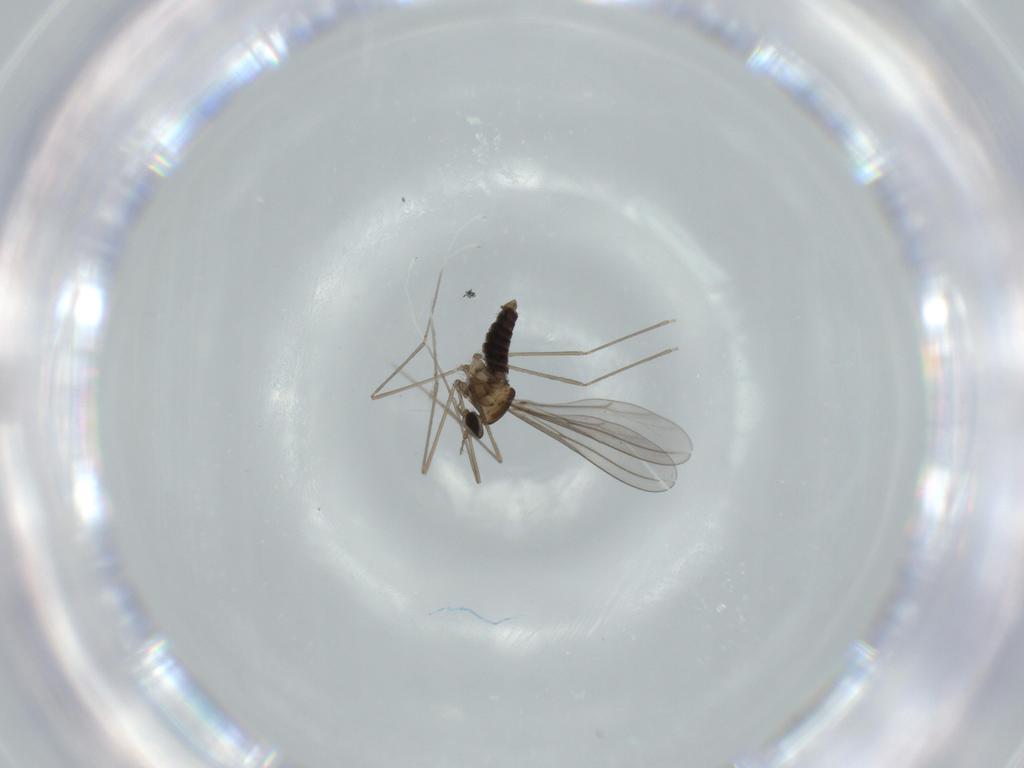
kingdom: Animalia
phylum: Arthropoda
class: Insecta
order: Diptera
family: Cecidomyiidae
